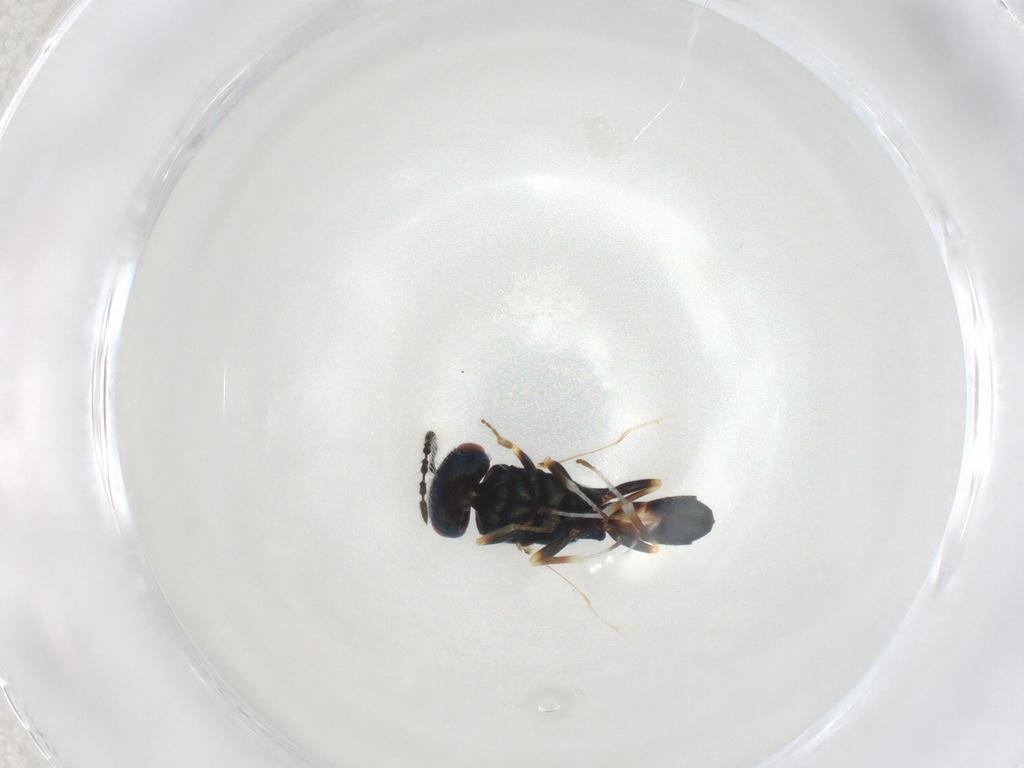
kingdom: Animalia
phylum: Arthropoda
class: Insecta
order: Hymenoptera
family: Pteromalidae
